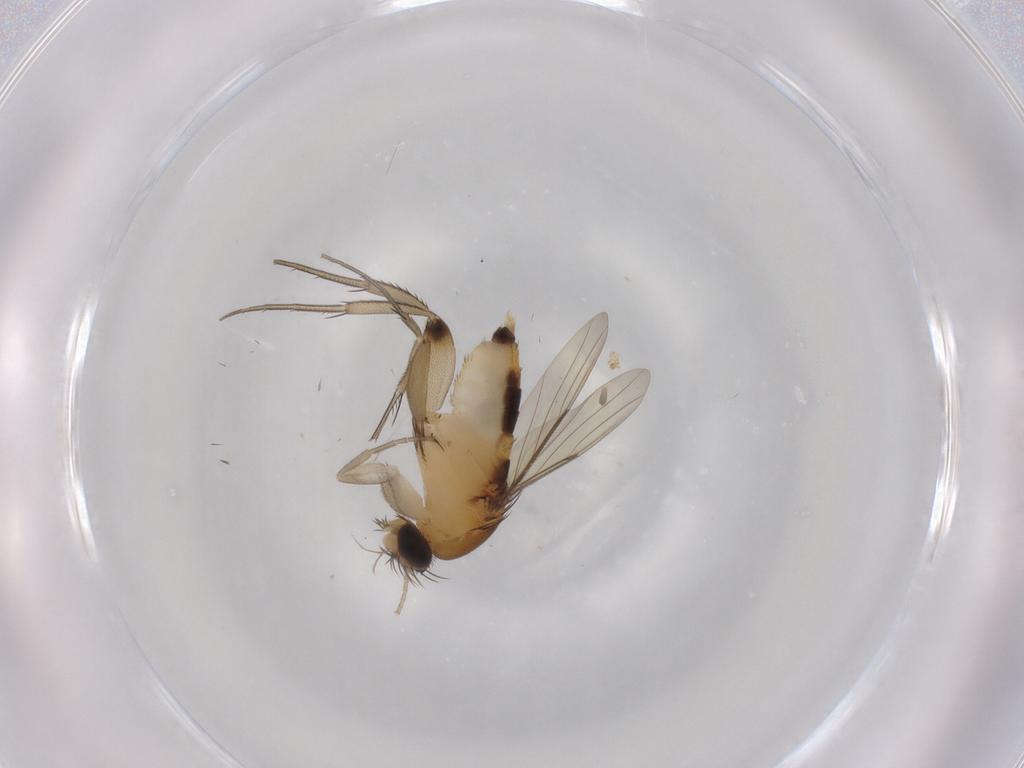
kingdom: Animalia
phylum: Arthropoda
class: Insecta
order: Diptera
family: Phoridae
